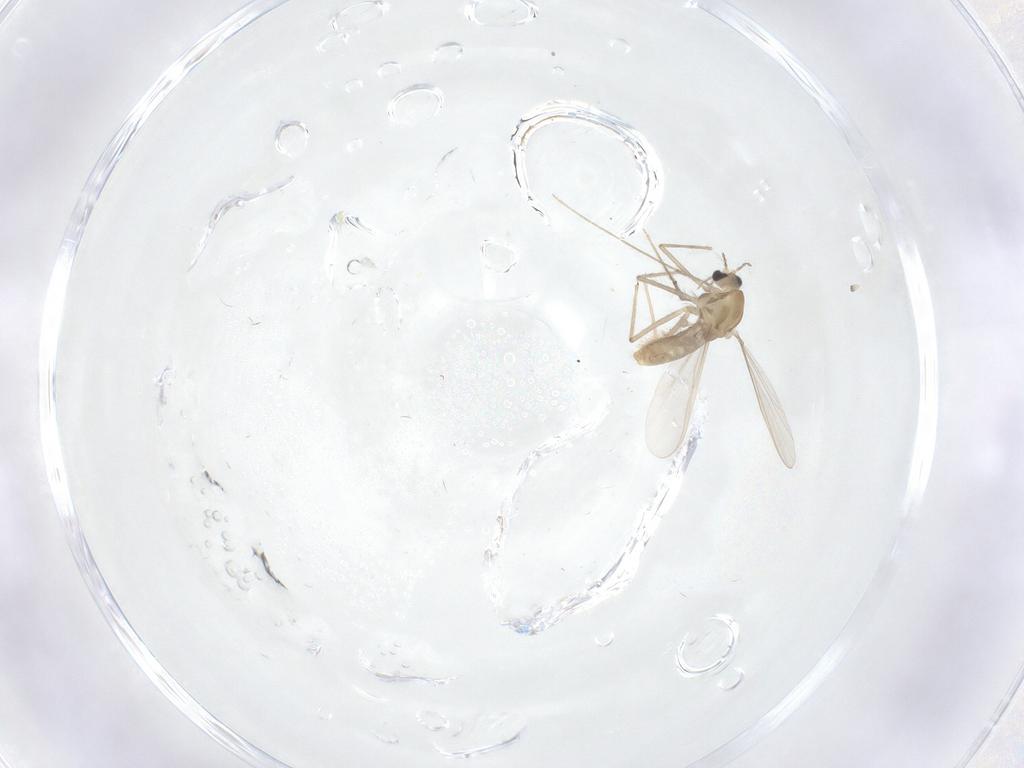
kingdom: Animalia
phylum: Arthropoda
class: Insecta
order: Diptera
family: Chironomidae
